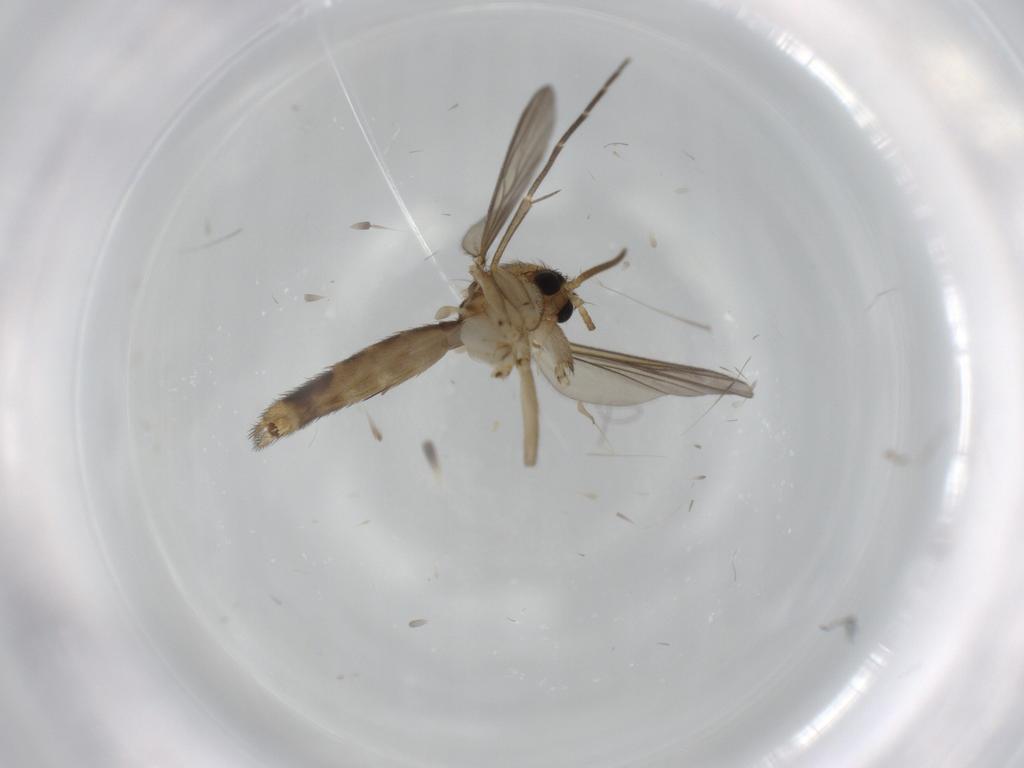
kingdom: Animalia
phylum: Arthropoda
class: Insecta
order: Diptera
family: Mycetophilidae
